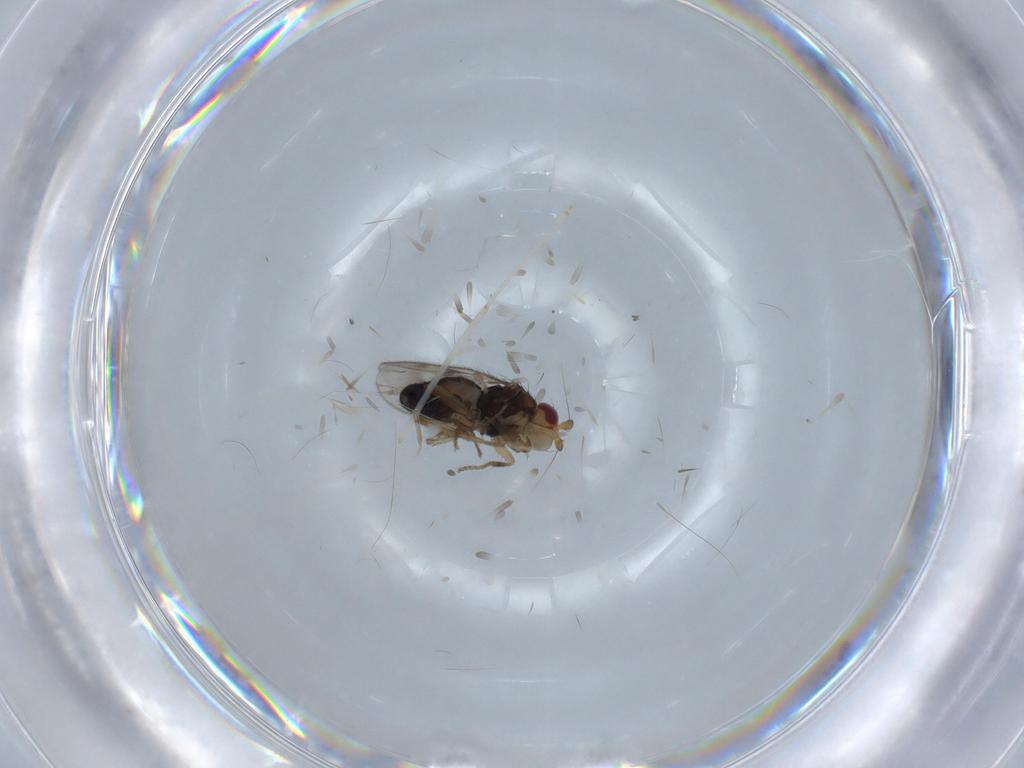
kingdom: Animalia
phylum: Arthropoda
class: Insecta
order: Diptera
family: Sphaeroceridae
